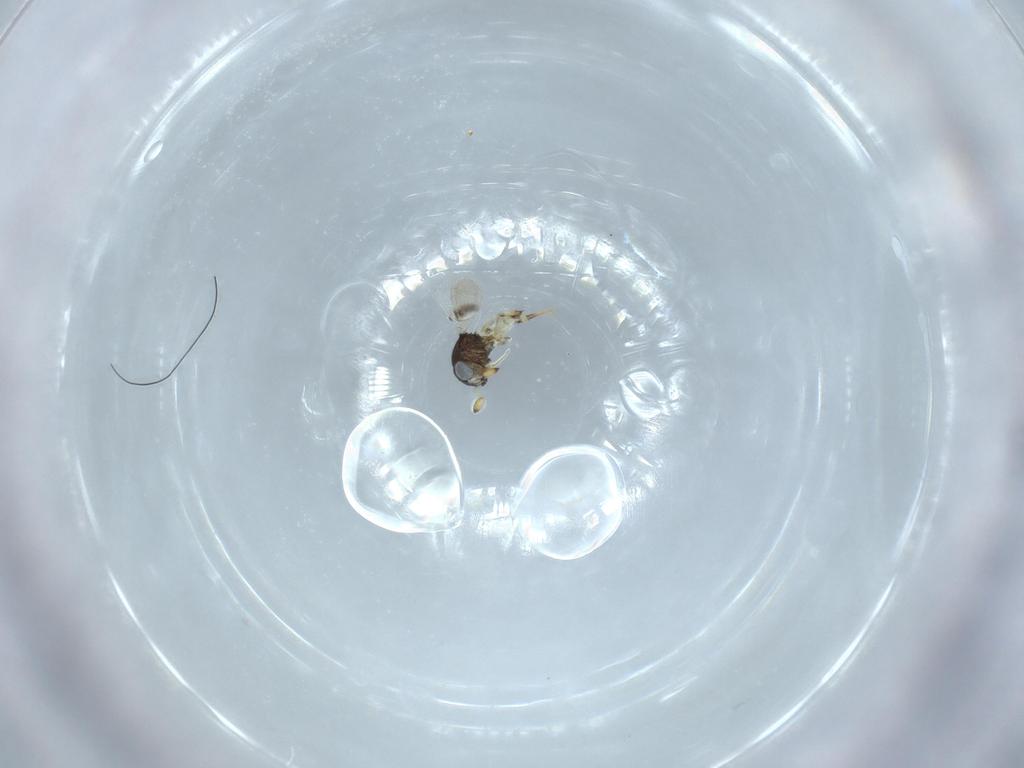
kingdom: Animalia
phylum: Arthropoda
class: Insecta
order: Hymenoptera
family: Scelionidae
